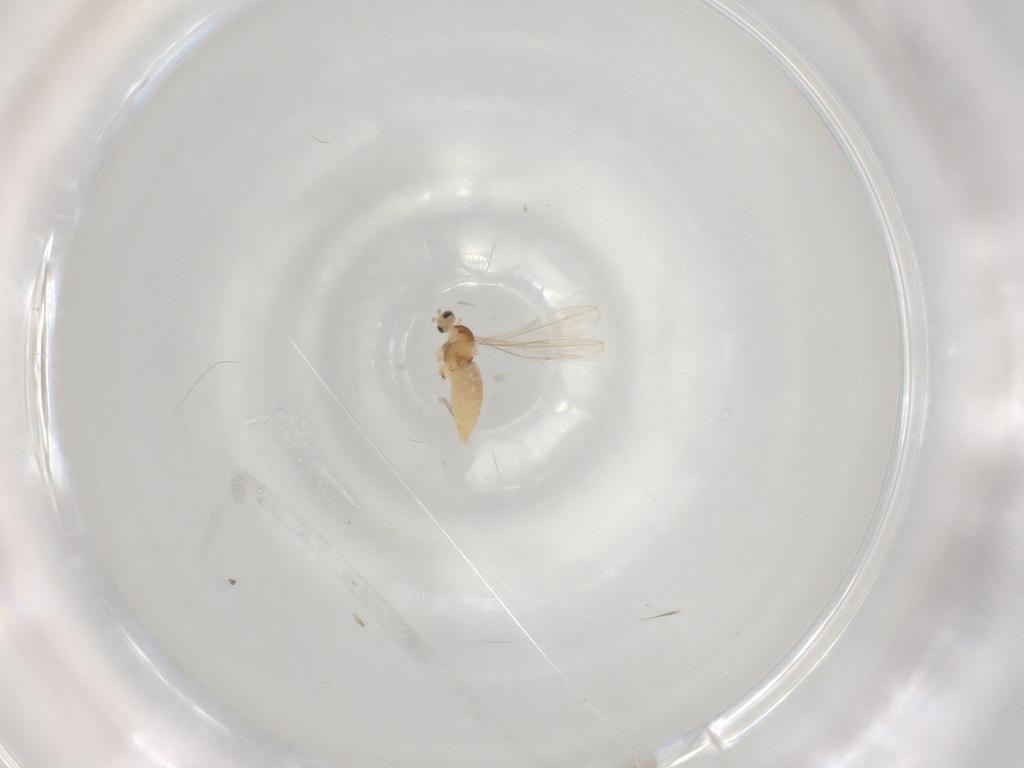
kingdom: Animalia
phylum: Arthropoda
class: Insecta
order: Diptera
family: Cecidomyiidae
